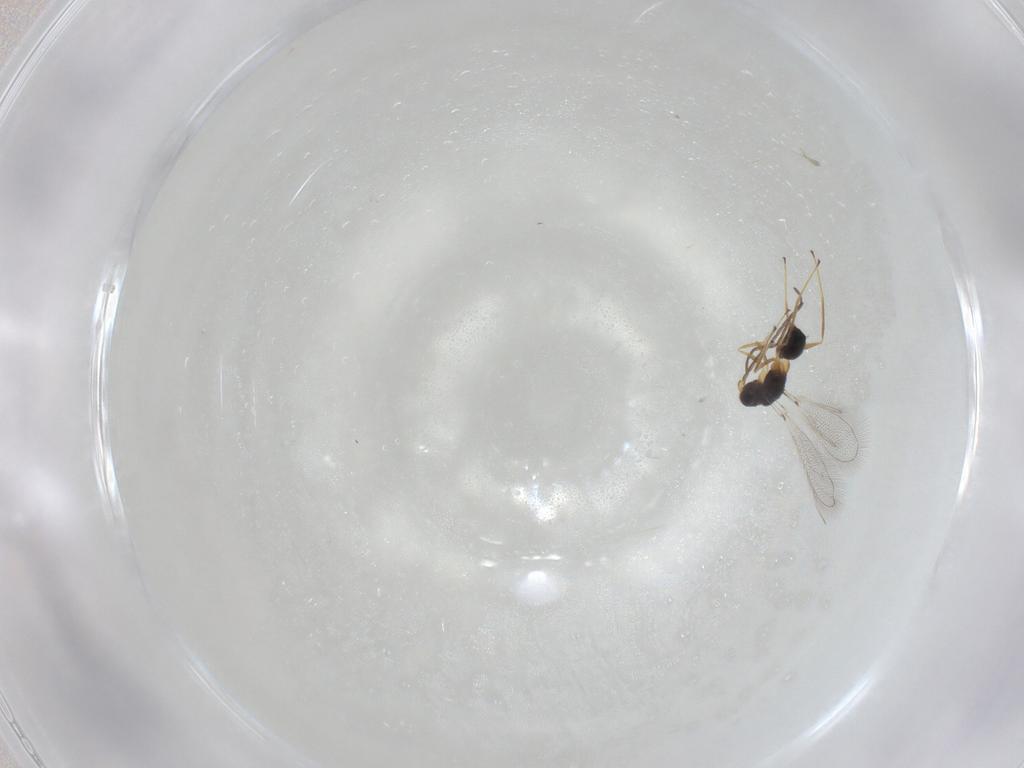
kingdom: Animalia
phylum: Arthropoda
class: Insecta
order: Hymenoptera
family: Mymaridae
